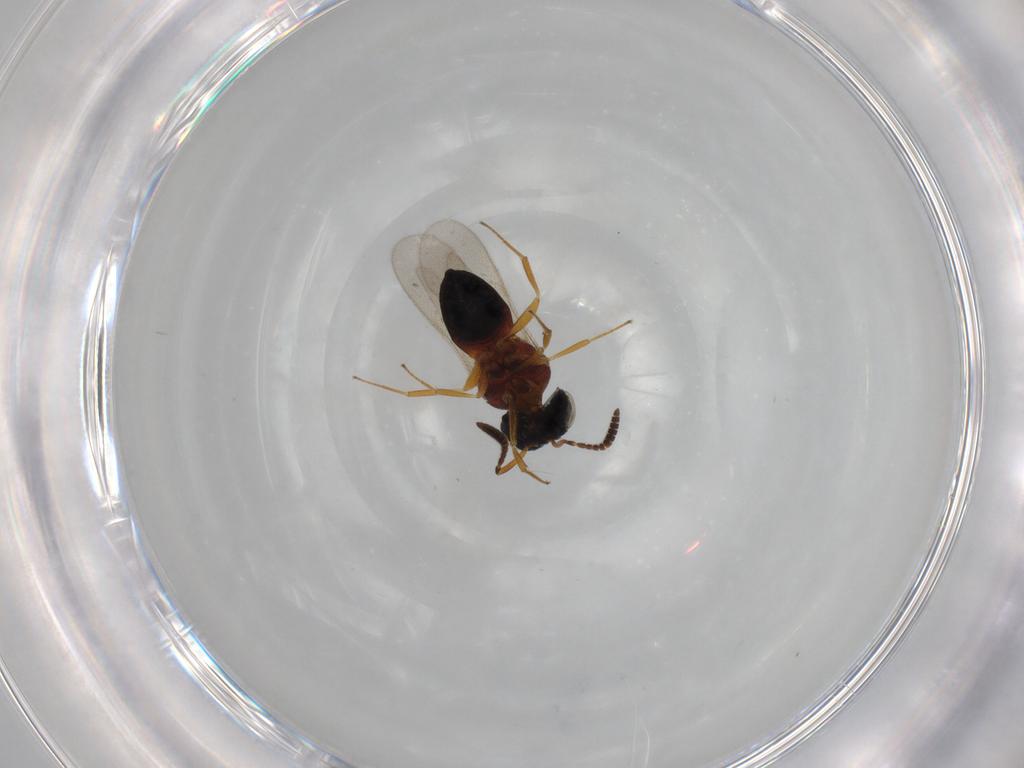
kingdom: Animalia
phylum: Arthropoda
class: Insecta
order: Hymenoptera
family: Scelionidae
